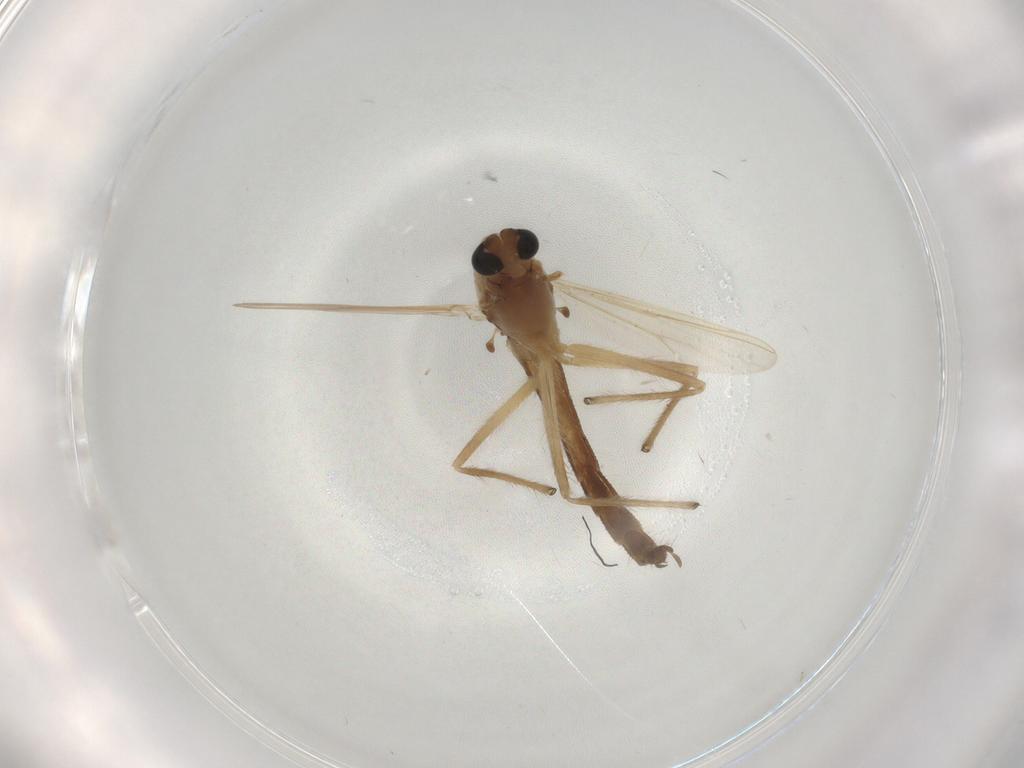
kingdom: Animalia
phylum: Arthropoda
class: Insecta
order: Diptera
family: Chironomidae
